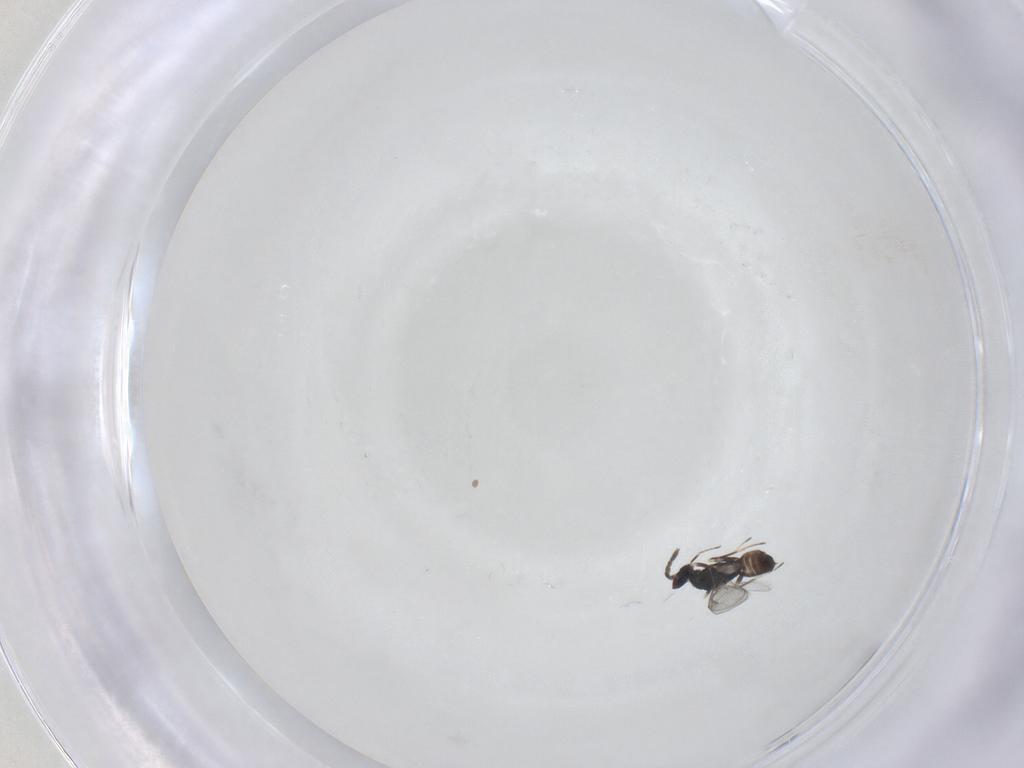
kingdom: Animalia
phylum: Arthropoda
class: Insecta
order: Hymenoptera
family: Eulophidae
